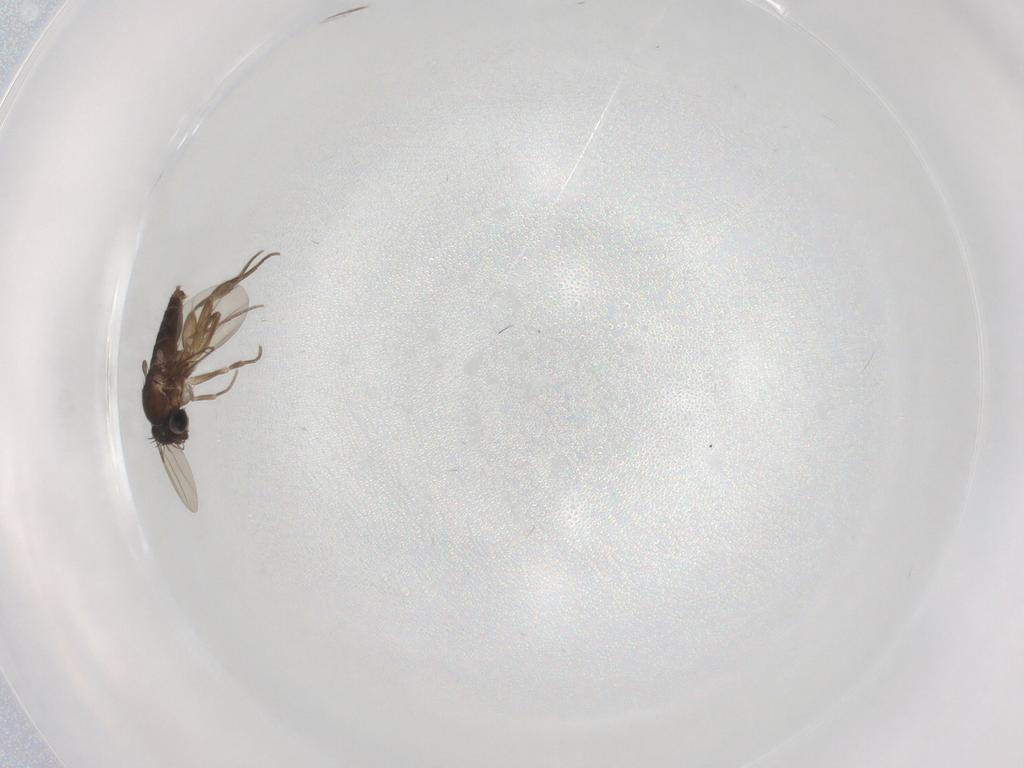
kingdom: Animalia
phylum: Arthropoda
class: Insecta
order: Diptera
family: Phoridae
